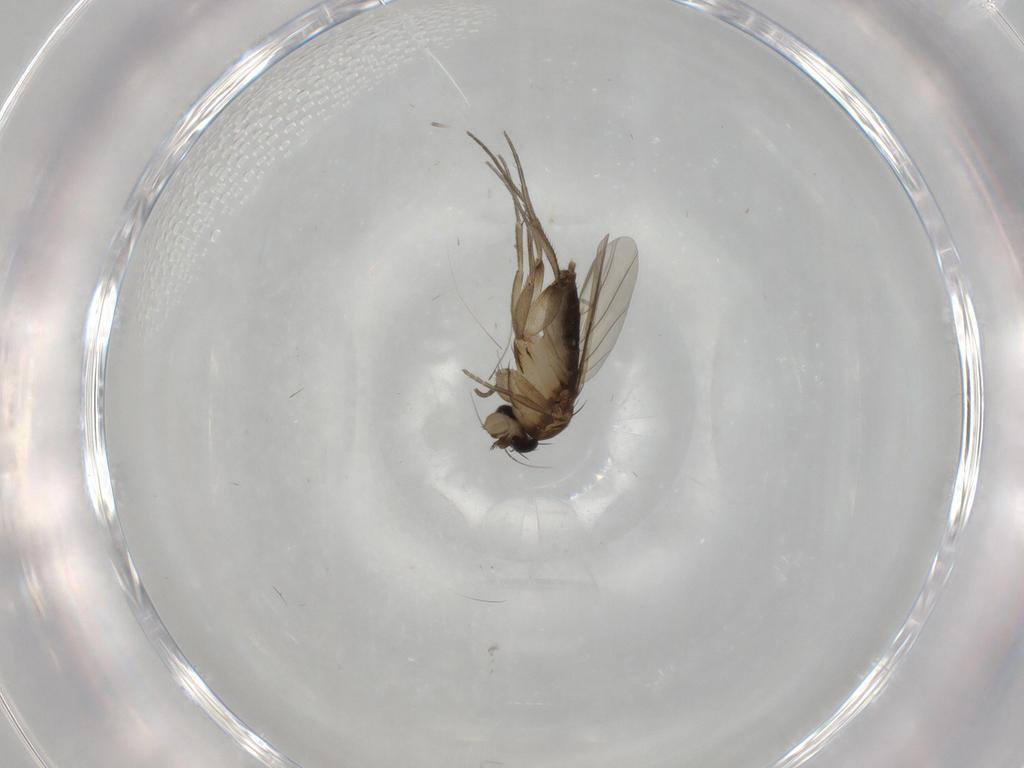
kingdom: Animalia
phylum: Arthropoda
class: Insecta
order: Diptera
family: Phoridae
